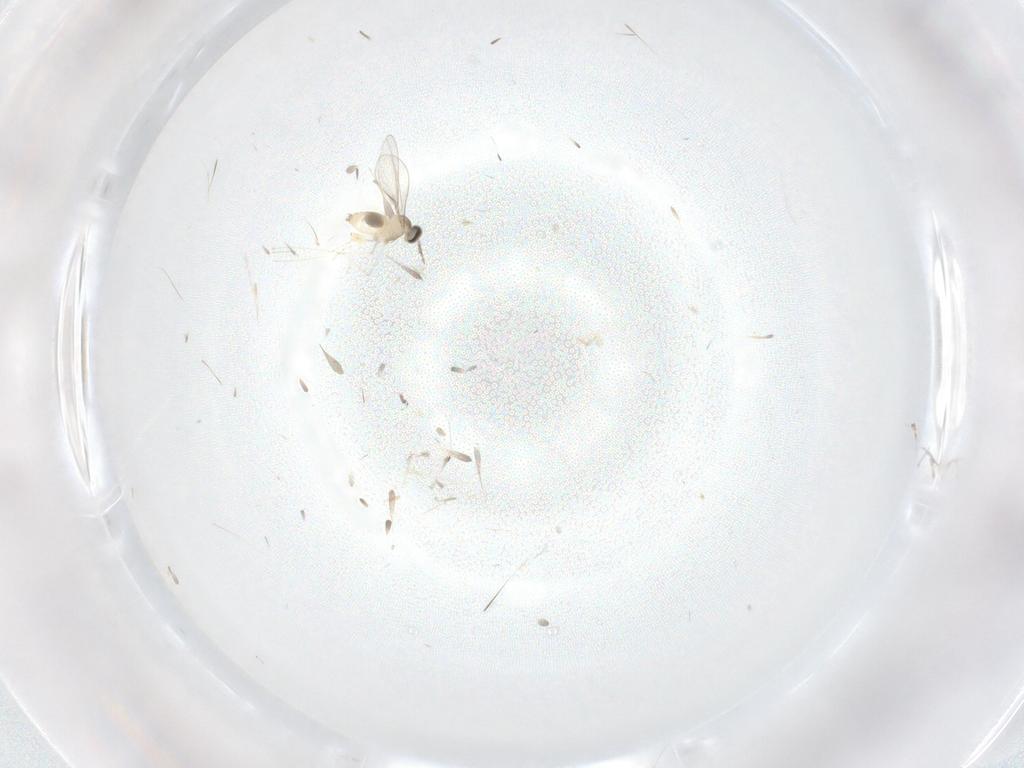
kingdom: Animalia
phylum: Arthropoda
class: Insecta
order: Diptera
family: Cecidomyiidae
